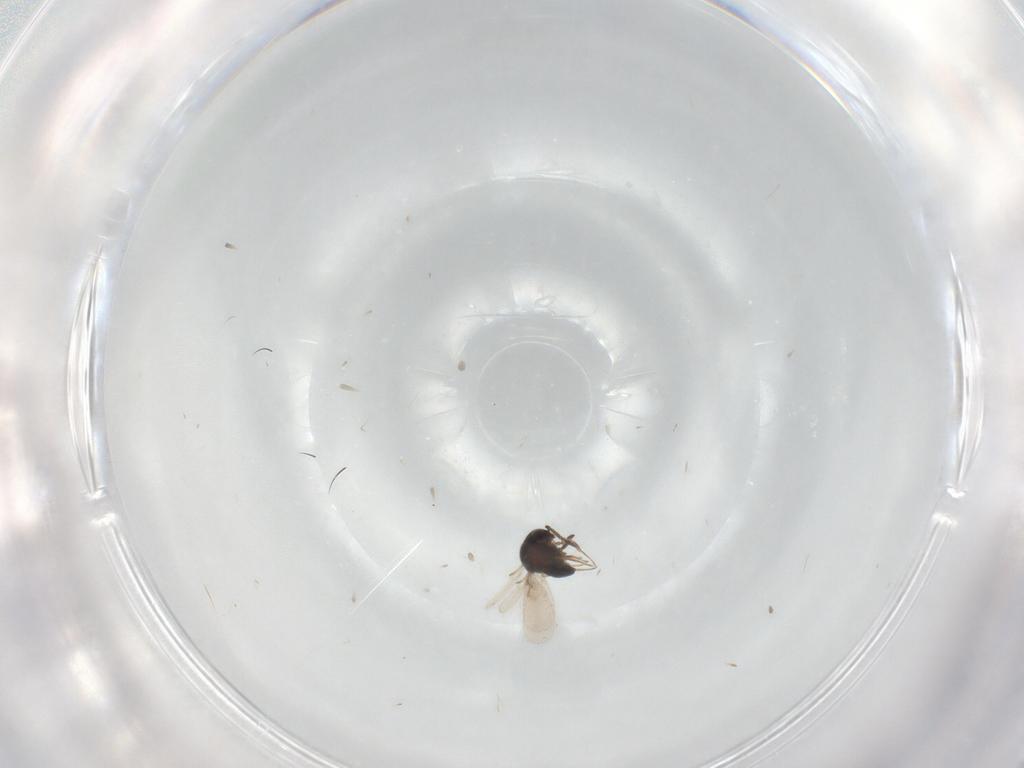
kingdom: Animalia
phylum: Arthropoda
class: Insecta
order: Hymenoptera
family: Scelionidae
